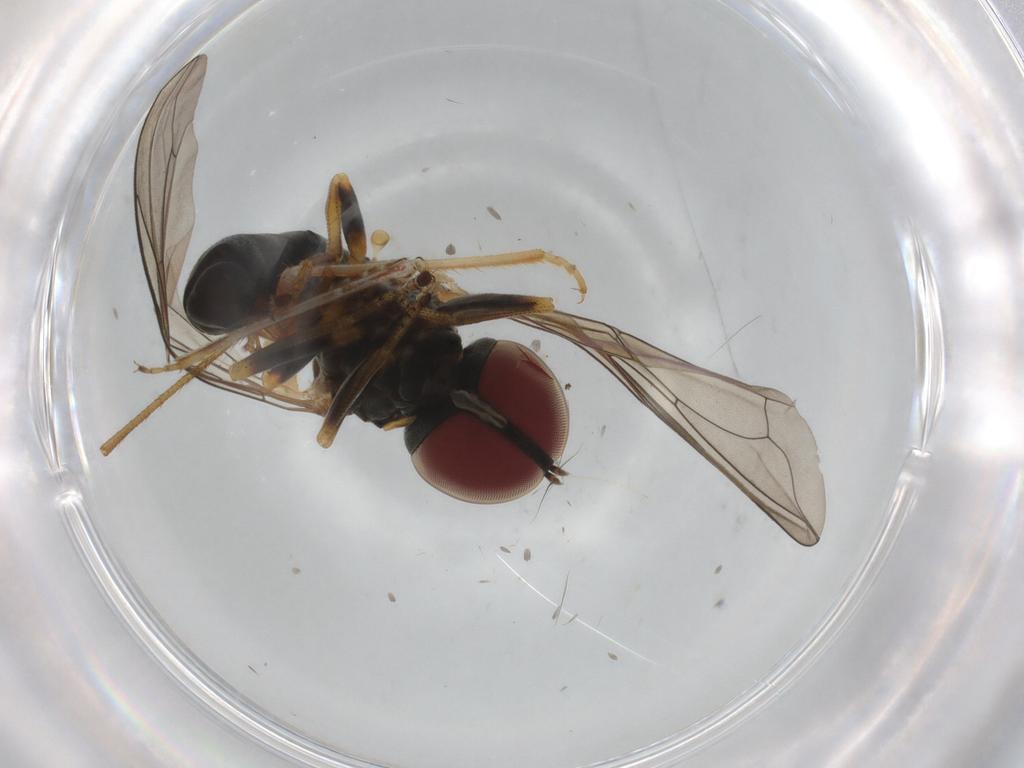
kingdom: Animalia
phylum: Arthropoda
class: Insecta
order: Diptera
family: Pipunculidae
